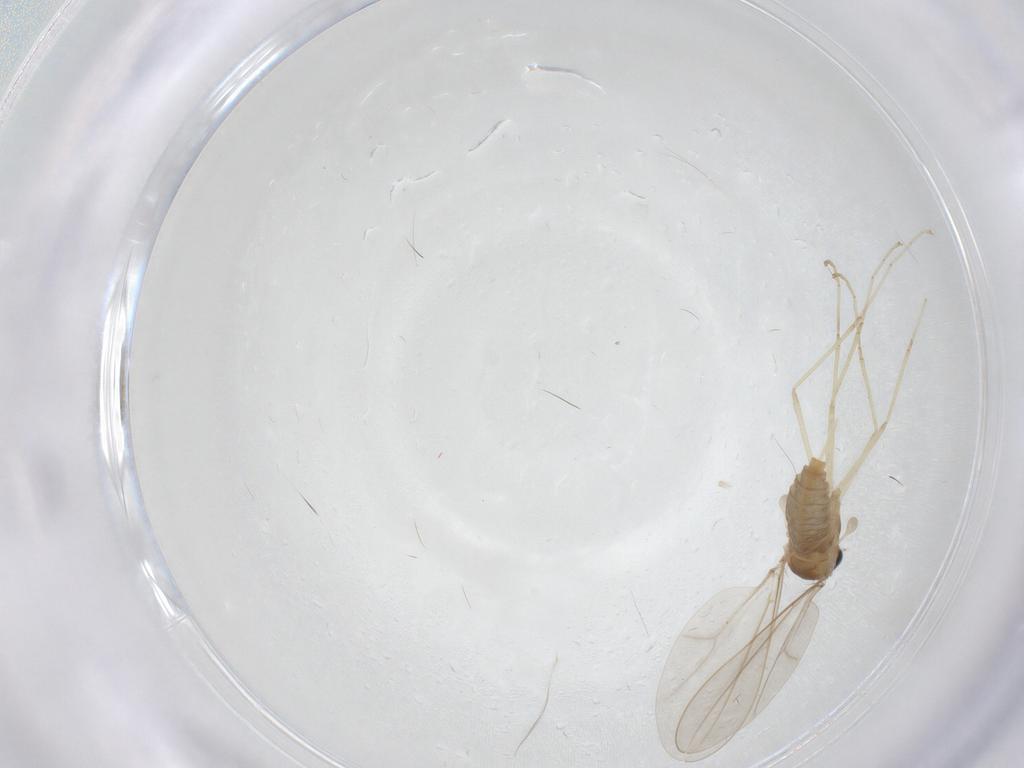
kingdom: Animalia
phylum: Arthropoda
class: Insecta
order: Diptera
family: Cecidomyiidae
